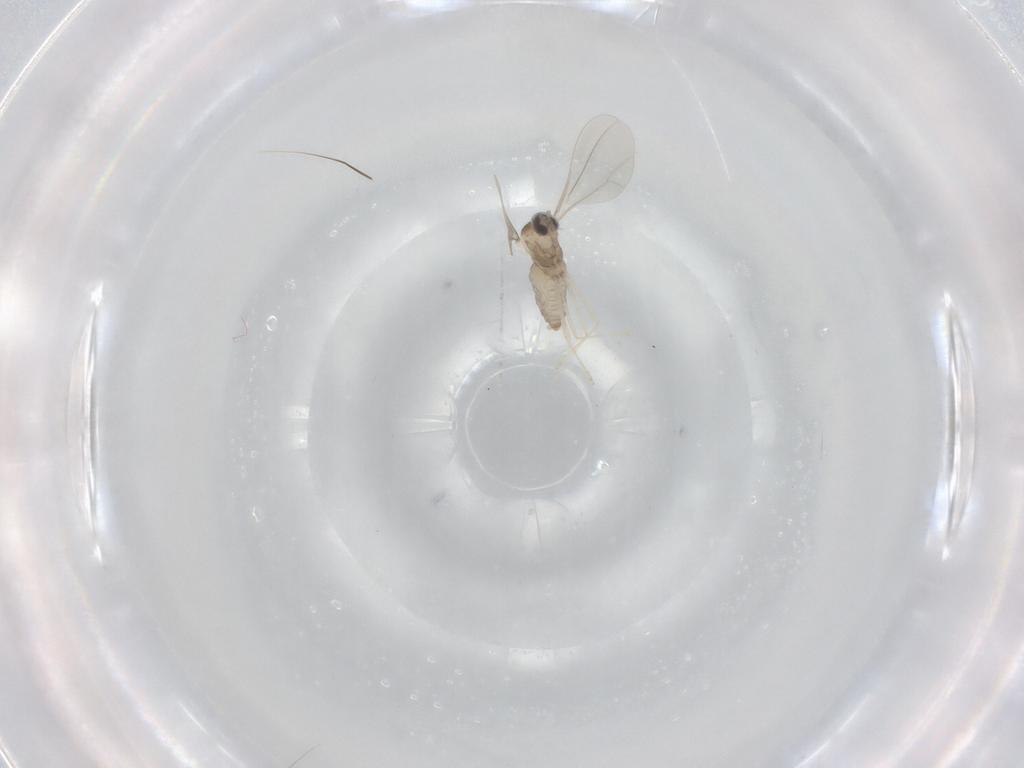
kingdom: Animalia
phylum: Arthropoda
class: Insecta
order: Diptera
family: Cecidomyiidae
